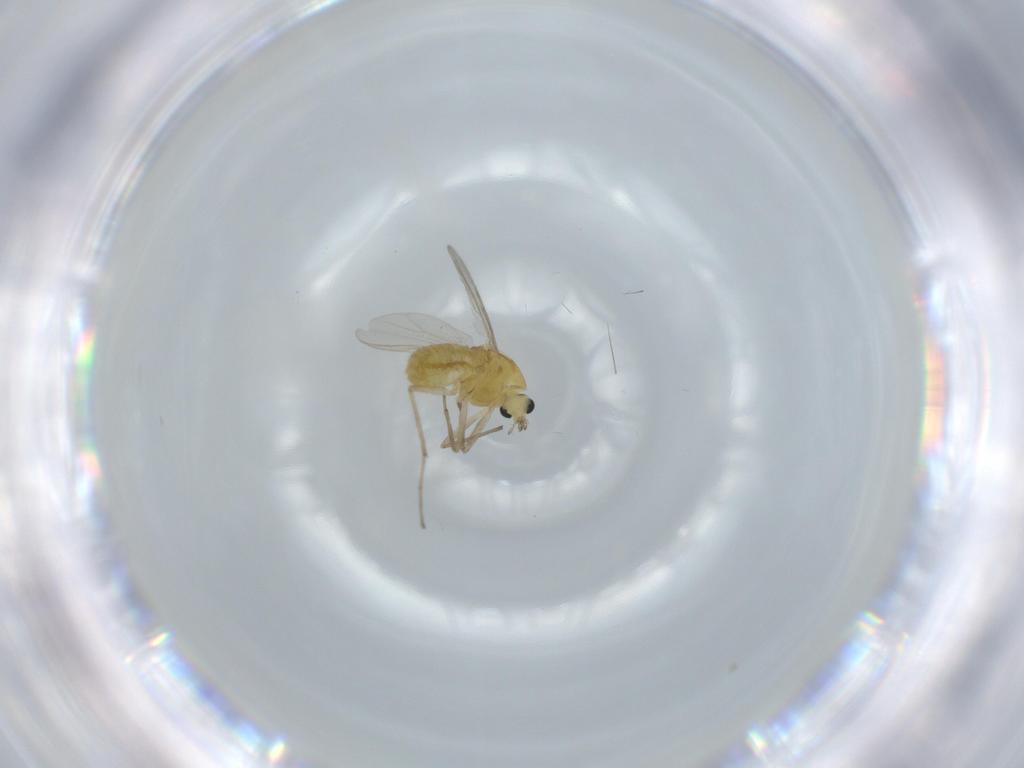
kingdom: Animalia
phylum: Arthropoda
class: Insecta
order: Diptera
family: Chironomidae
